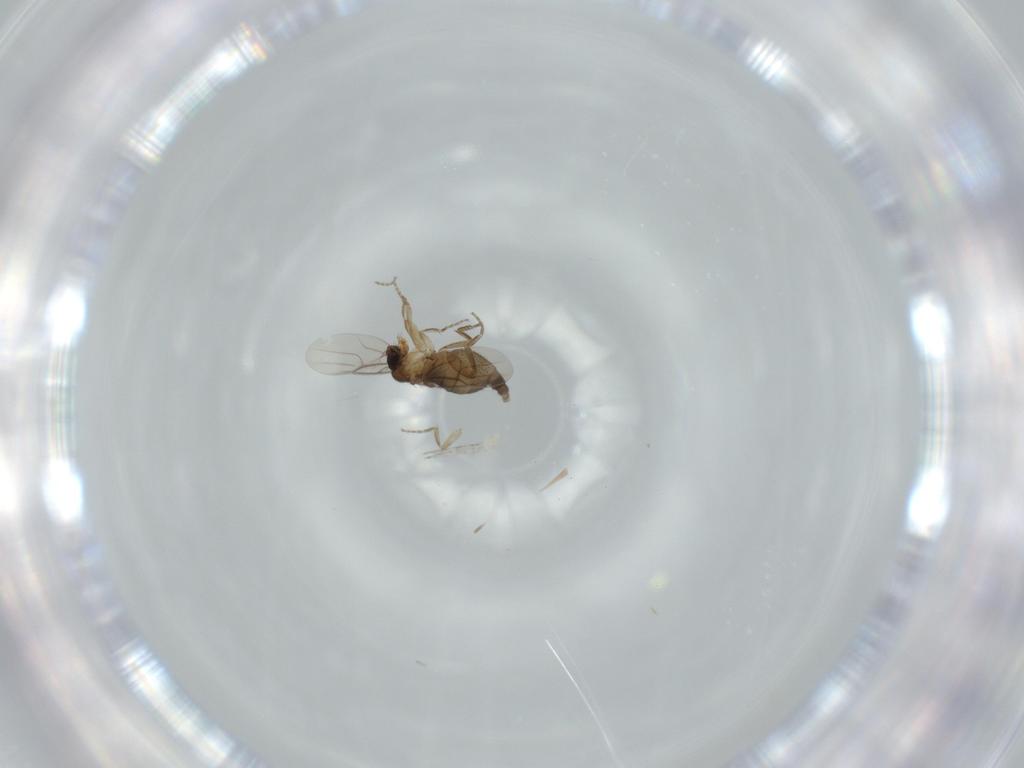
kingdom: Animalia
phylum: Arthropoda
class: Insecta
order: Diptera
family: Phoridae
